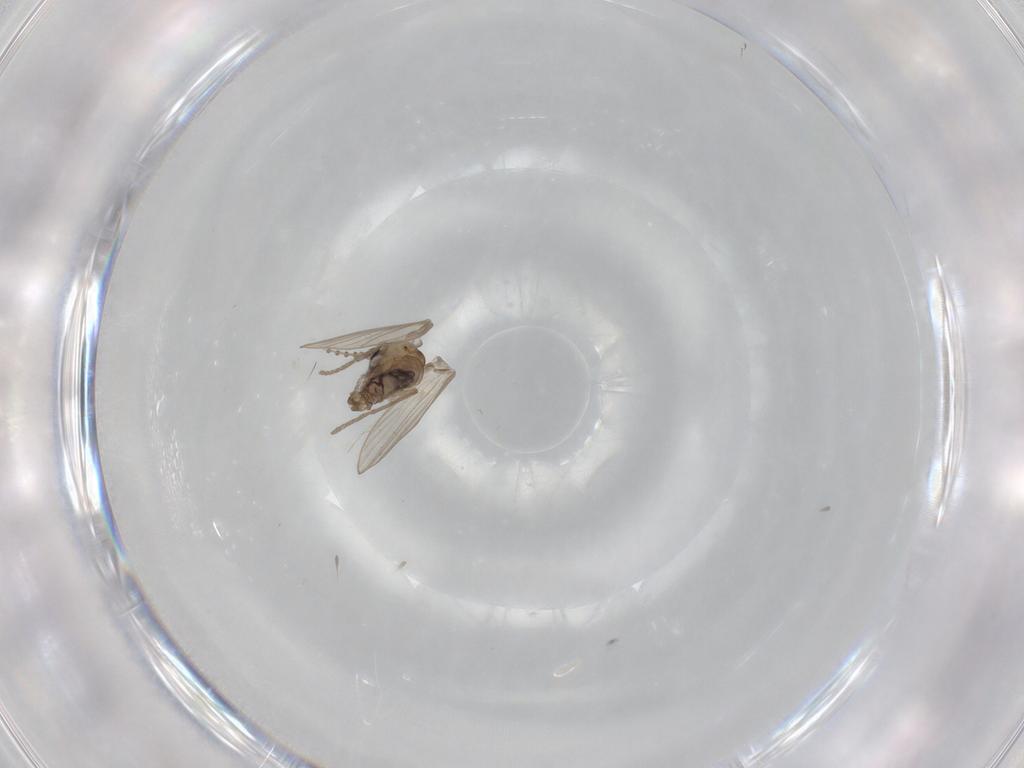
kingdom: Animalia
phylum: Arthropoda
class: Insecta
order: Diptera
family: Psychodidae
